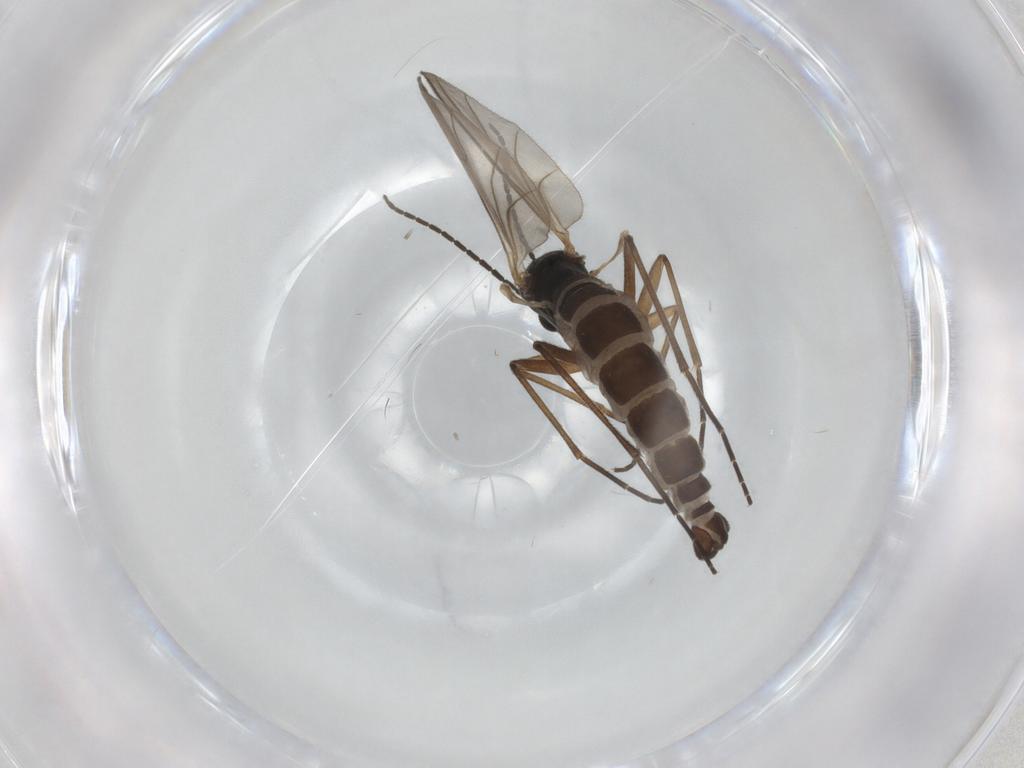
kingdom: Animalia
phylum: Arthropoda
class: Insecta
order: Diptera
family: Sciaridae
